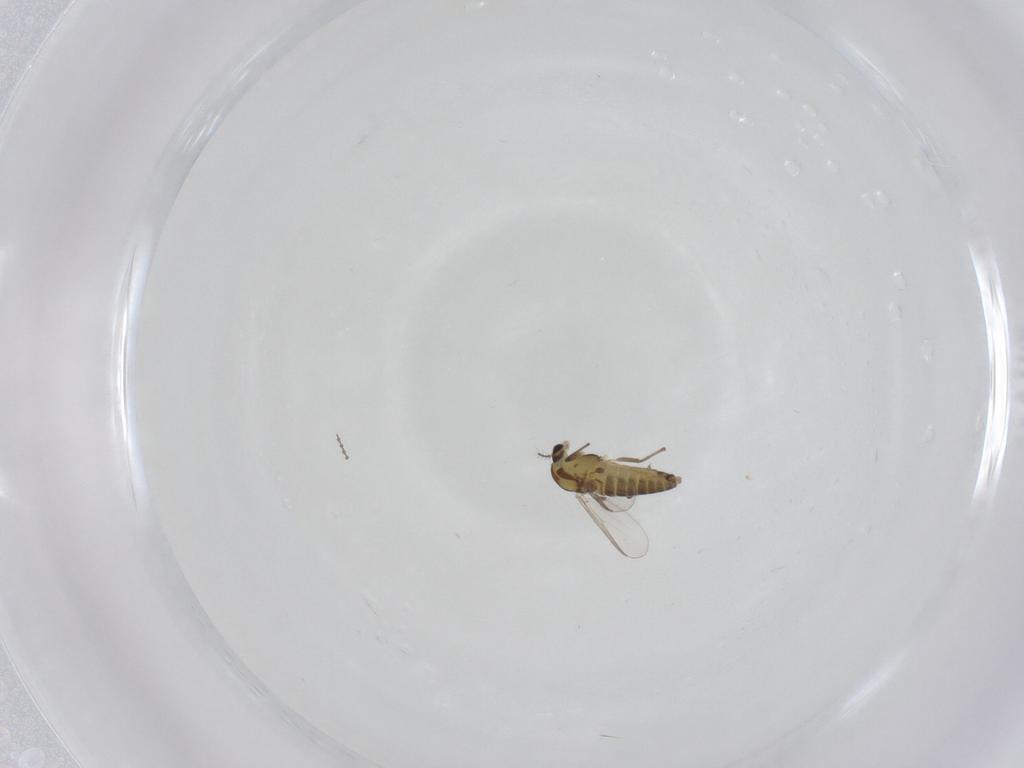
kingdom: Animalia
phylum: Arthropoda
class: Insecta
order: Diptera
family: Chironomidae
